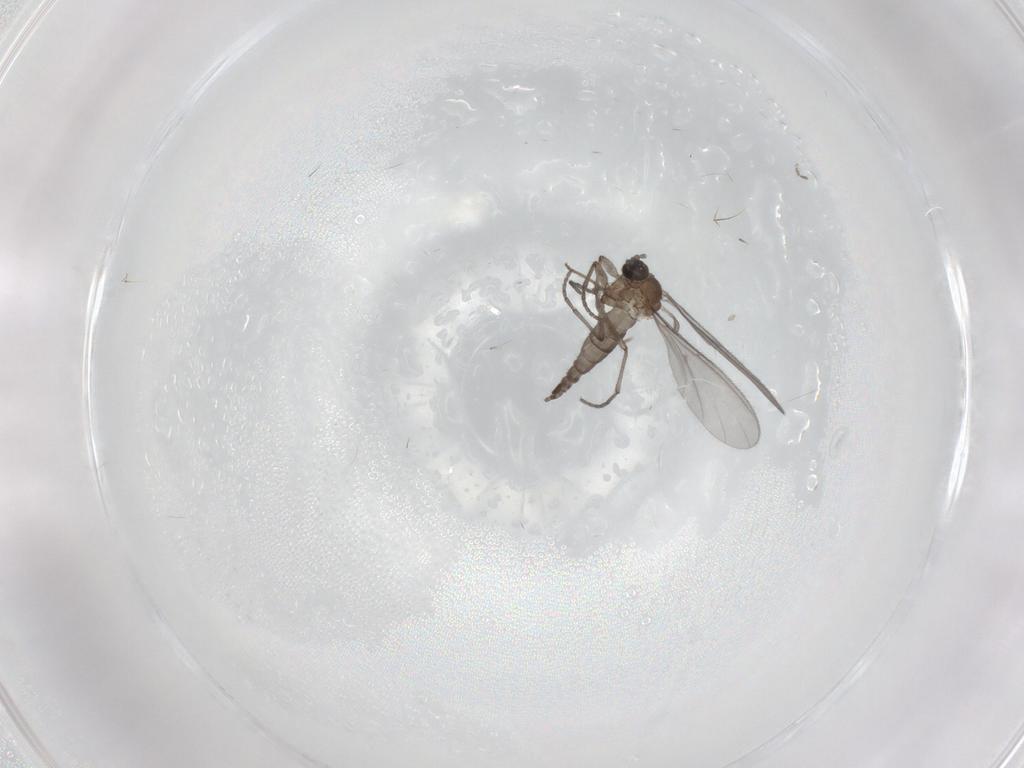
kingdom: Animalia
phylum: Arthropoda
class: Insecta
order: Diptera
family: Sciaridae
